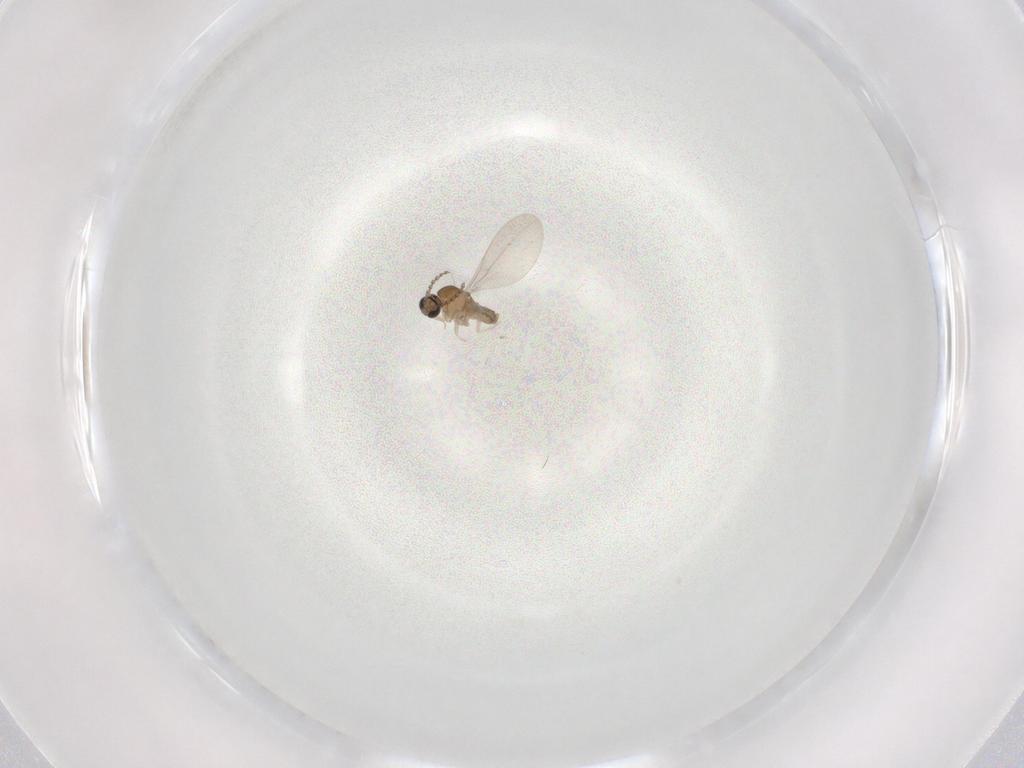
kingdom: Animalia
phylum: Arthropoda
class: Insecta
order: Diptera
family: Cecidomyiidae
